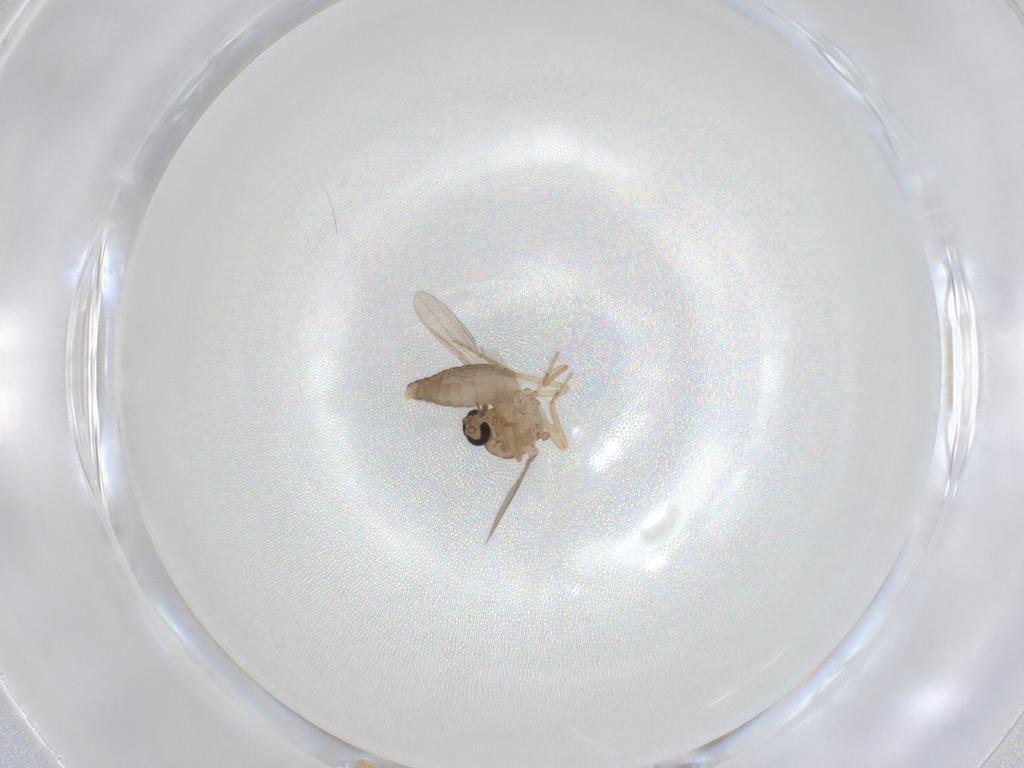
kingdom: Animalia
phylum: Arthropoda
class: Insecta
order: Diptera
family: Ceratopogonidae
